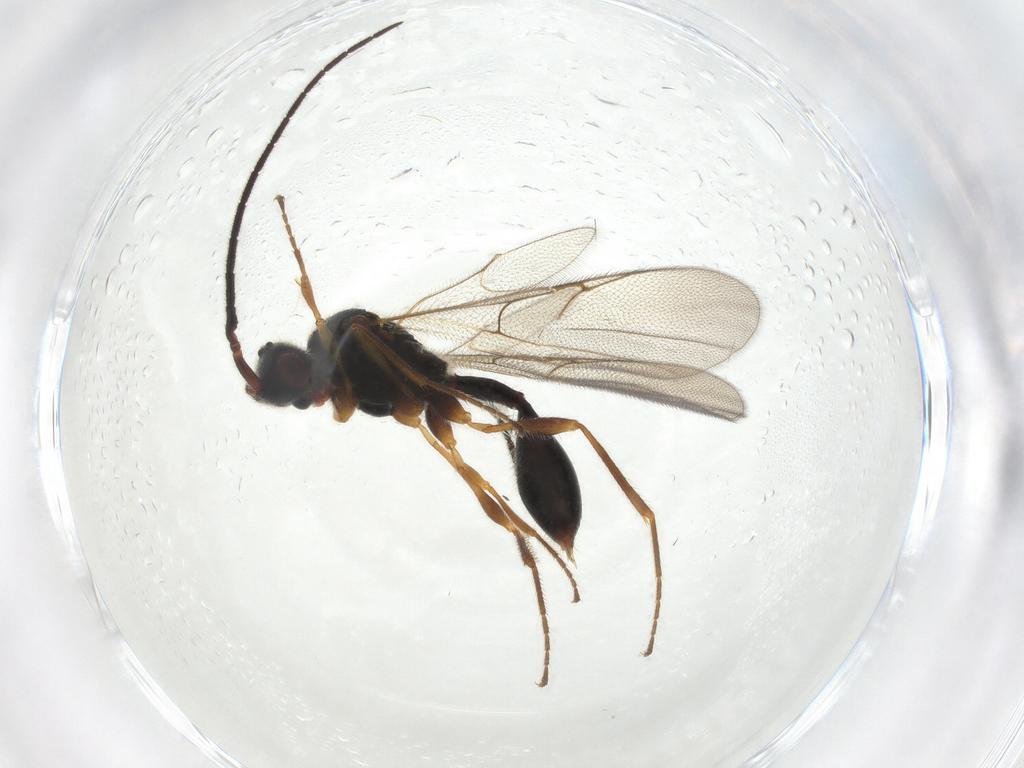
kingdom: Animalia
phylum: Arthropoda
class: Insecta
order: Hymenoptera
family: Diapriidae
